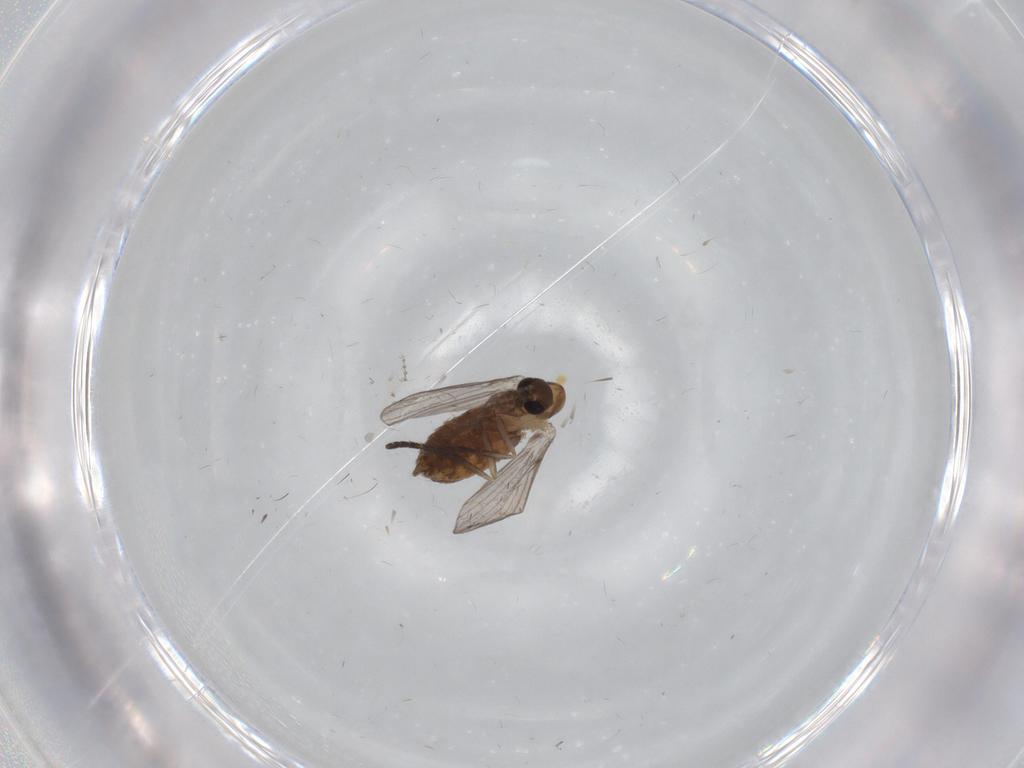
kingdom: Animalia
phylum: Arthropoda
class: Insecta
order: Diptera
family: Psychodidae
